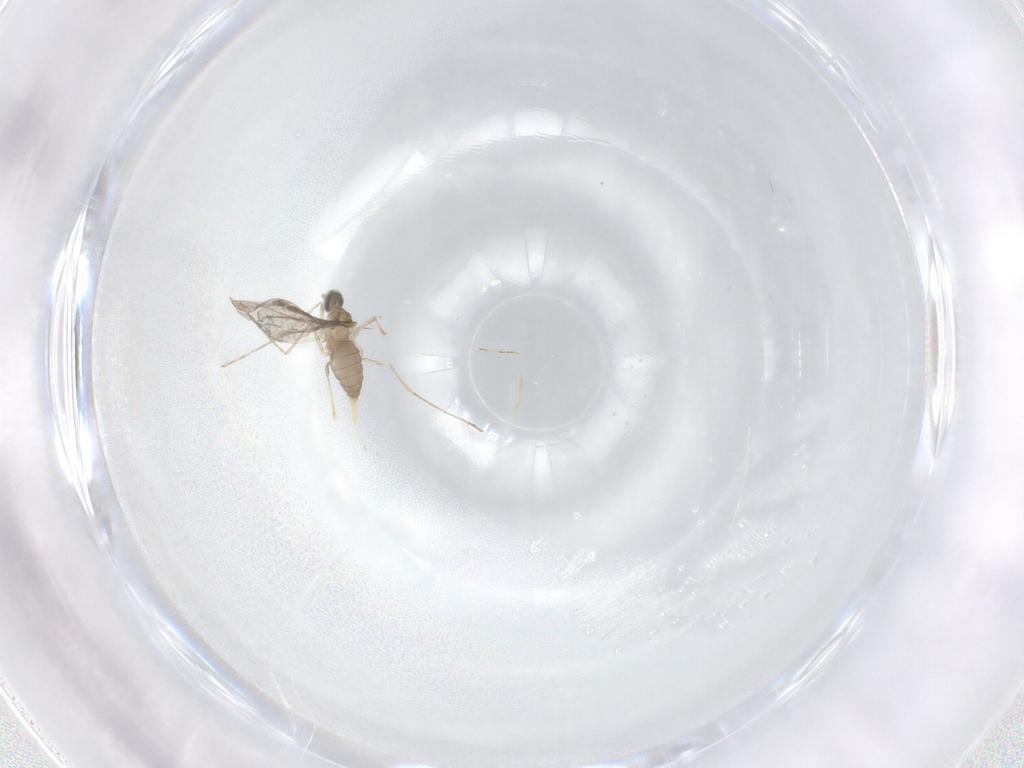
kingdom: Animalia
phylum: Arthropoda
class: Insecta
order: Diptera
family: Cecidomyiidae
